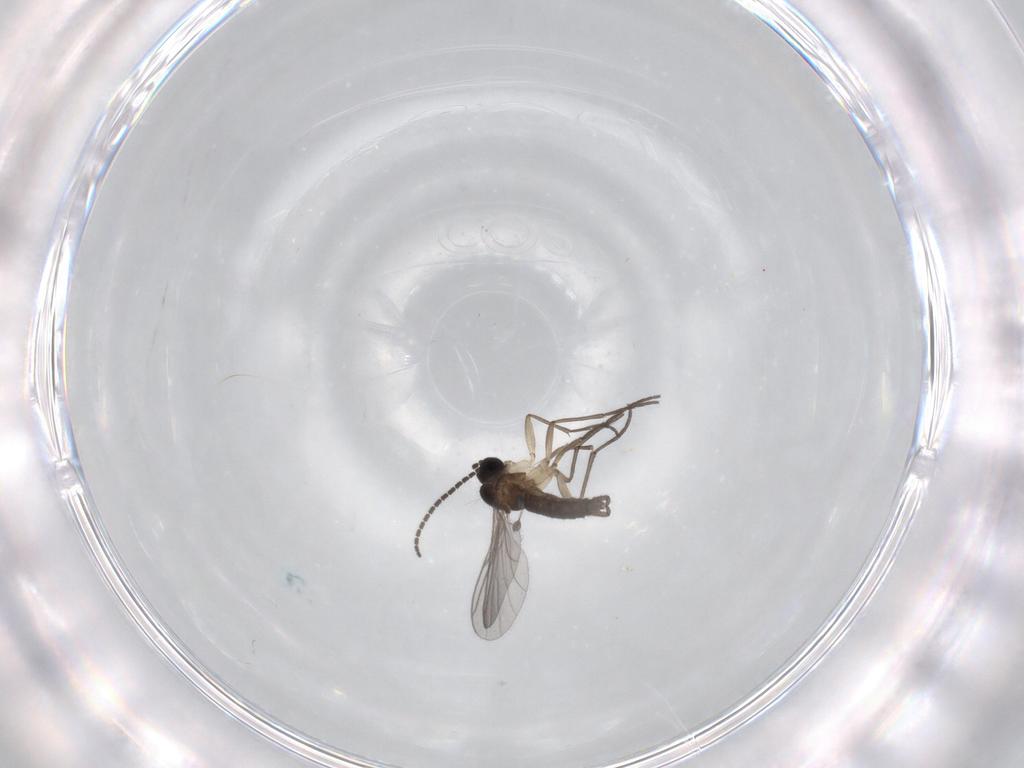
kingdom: Animalia
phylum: Arthropoda
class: Insecta
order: Diptera
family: Sciaridae
